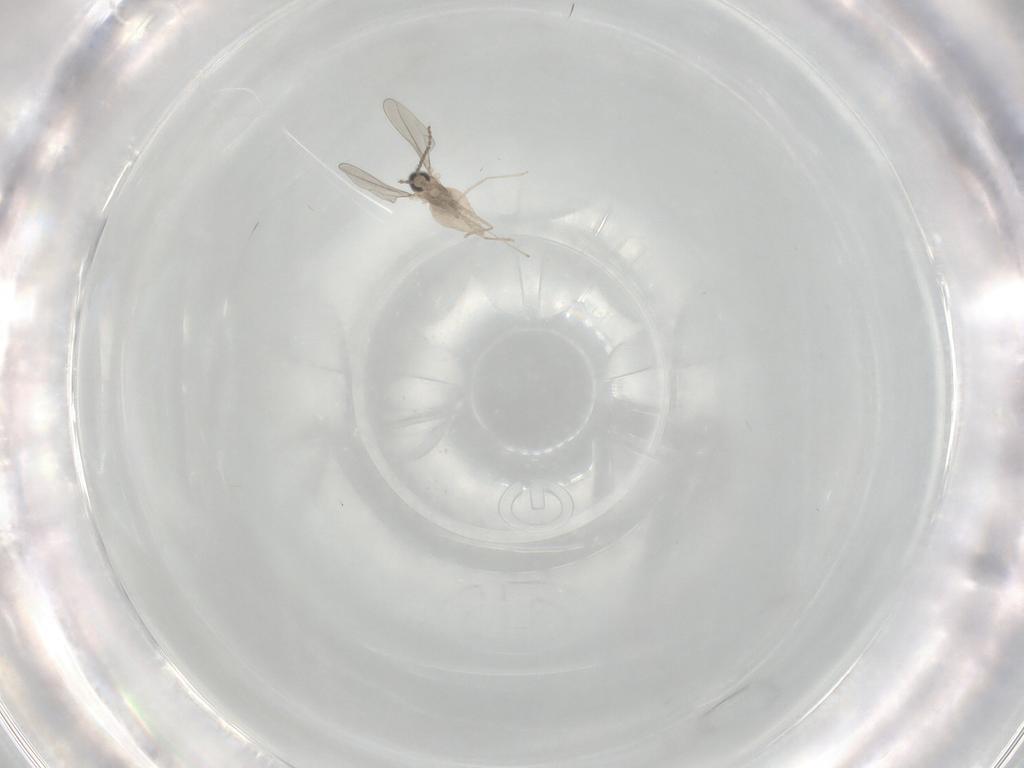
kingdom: Animalia
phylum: Arthropoda
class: Insecta
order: Diptera
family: Cecidomyiidae
